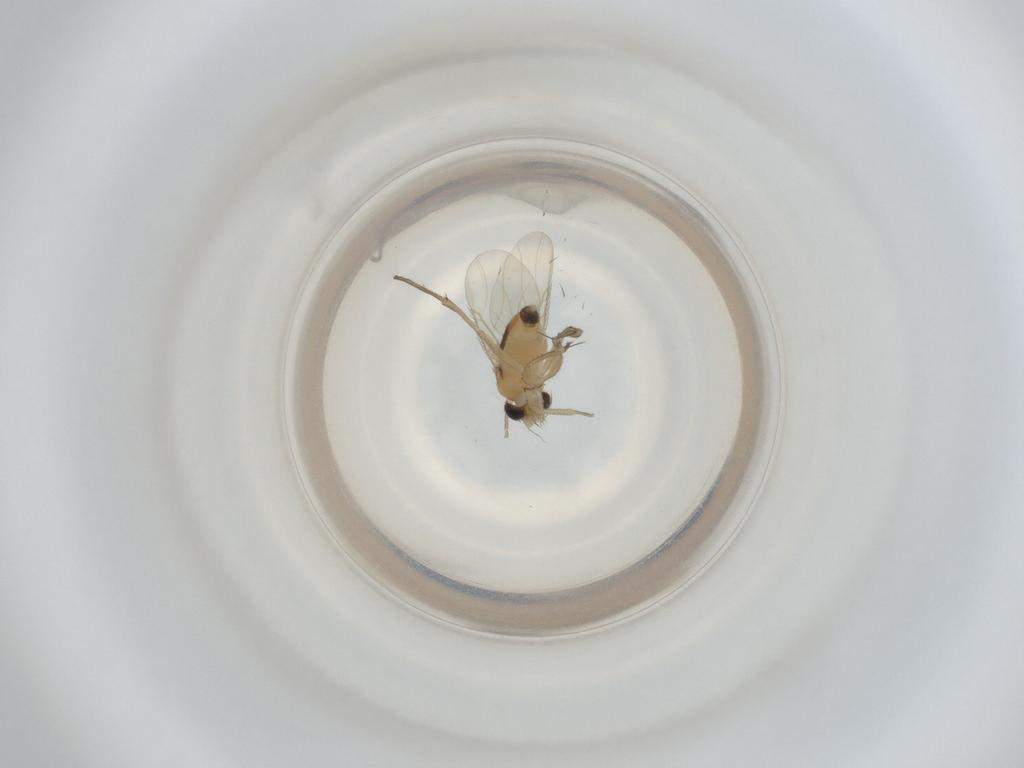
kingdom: Animalia
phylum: Arthropoda
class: Insecta
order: Diptera
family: Phoridae
